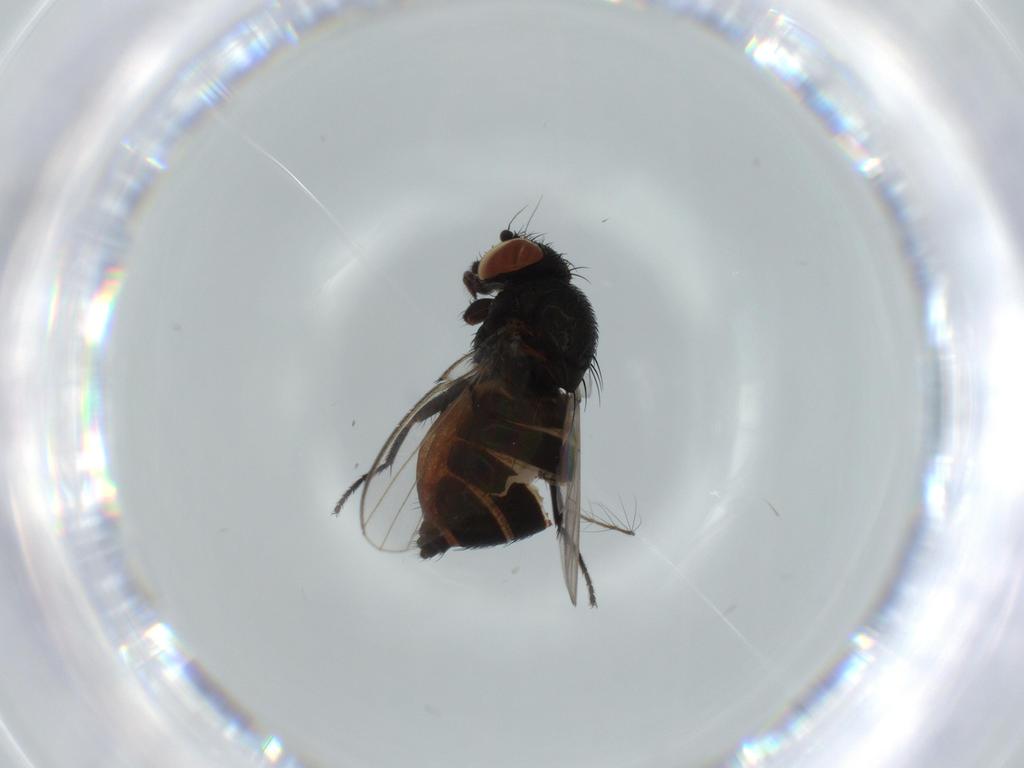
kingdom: Animalia
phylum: Arthropoda
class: Insecta
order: Diptera
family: Milichiidae
